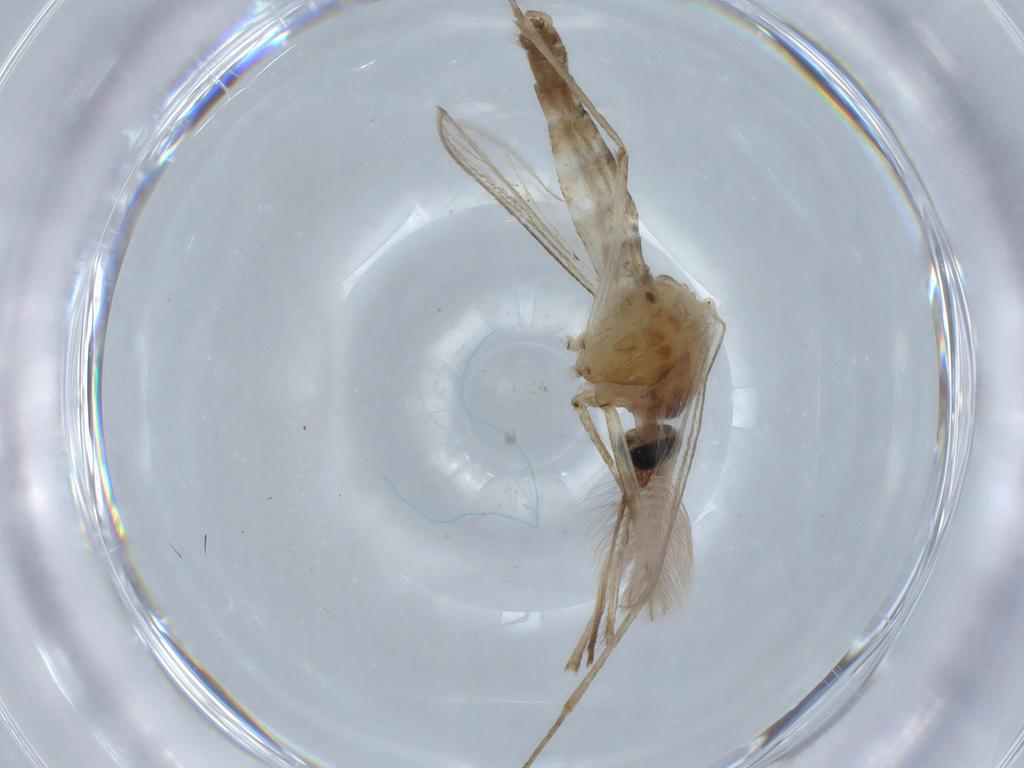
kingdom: Animalia
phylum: Arthropoda
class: Insecta
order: Diptera
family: Culicidae
